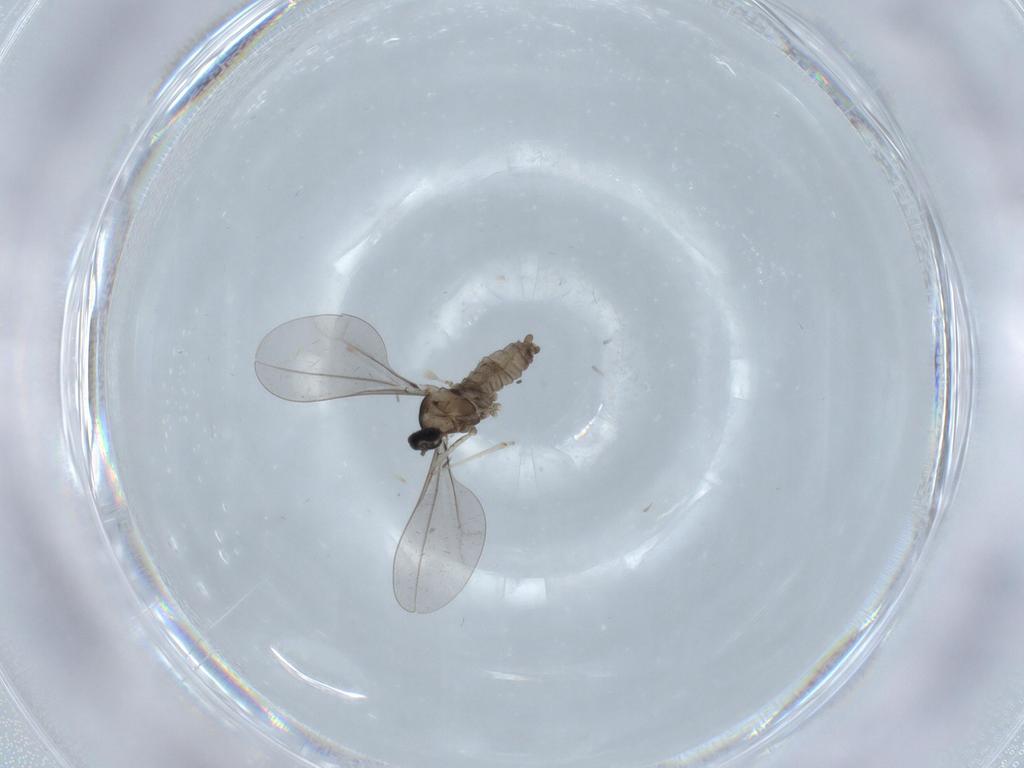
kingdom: Animalia
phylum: Arthropoda
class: Insecta
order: Diptera
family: Cecidomyiidae
